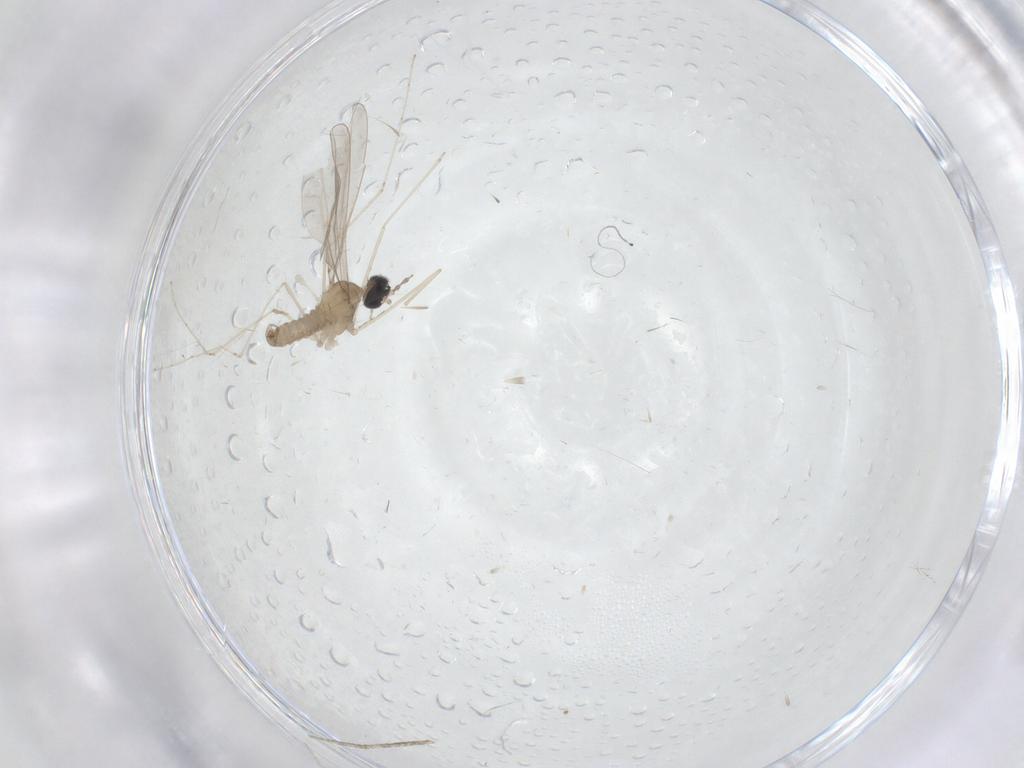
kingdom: Animalia
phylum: Arthropoda
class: Insecta
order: Diptera
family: Cecidomyiidae
